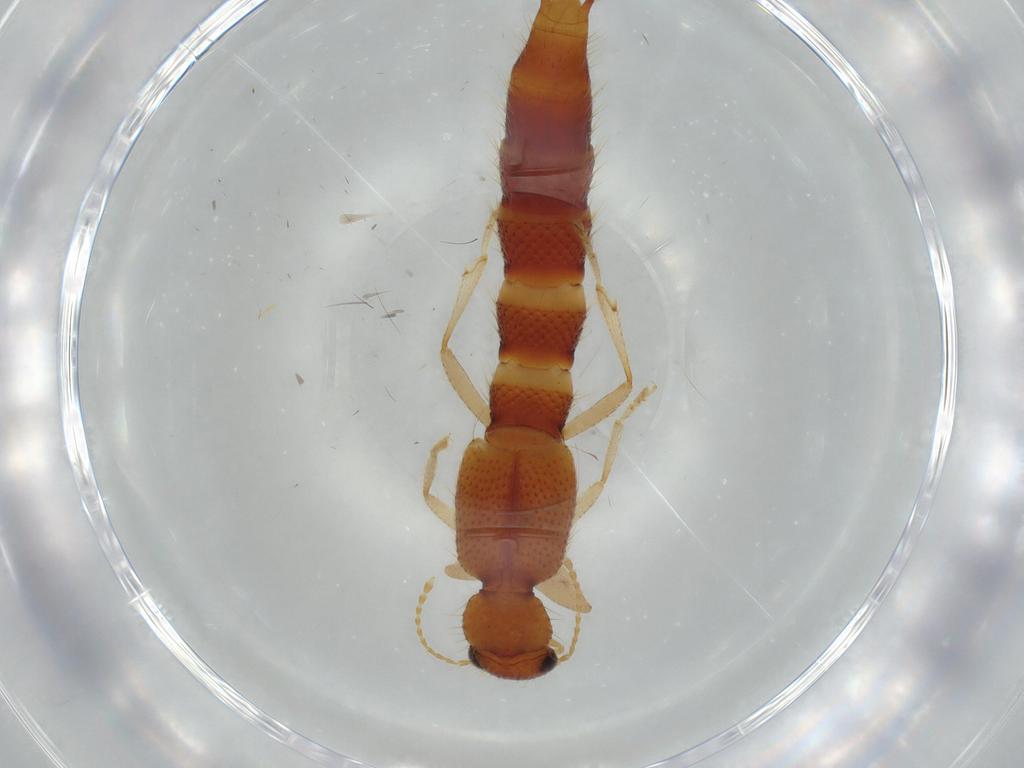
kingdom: Animalia
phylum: Arthropoda
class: Insecta
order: Coleoptera
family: Staphylinidae
